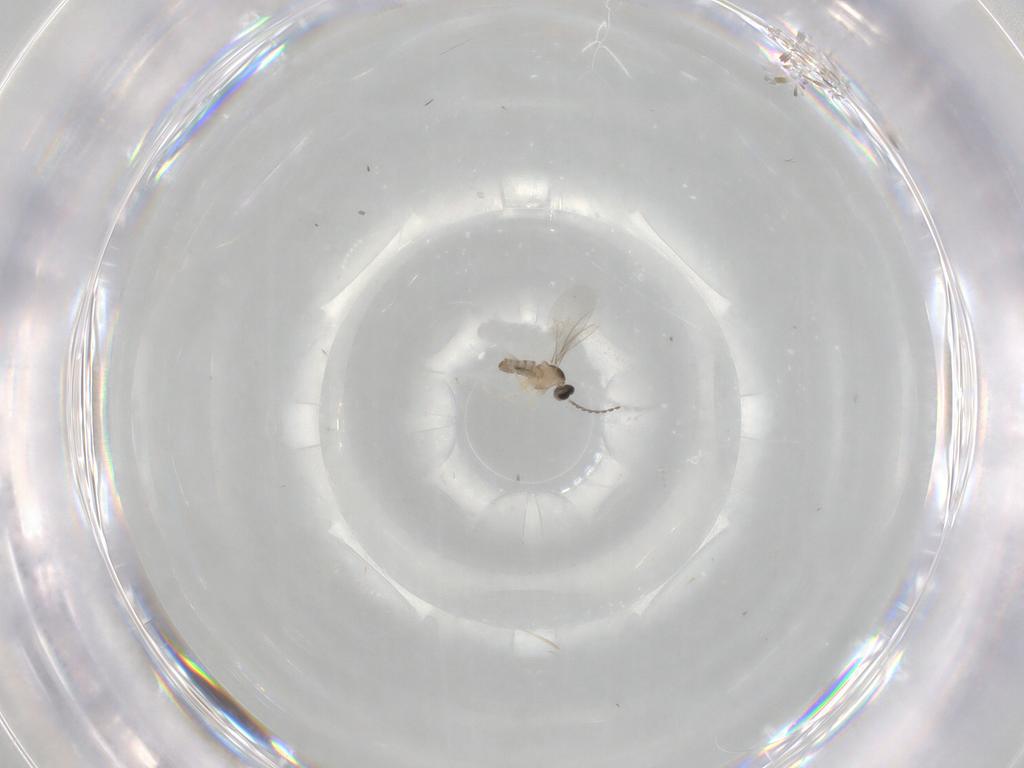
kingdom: Animalia
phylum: Arthropoda
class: Insecta
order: Diptera
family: Cecidomyiidae
